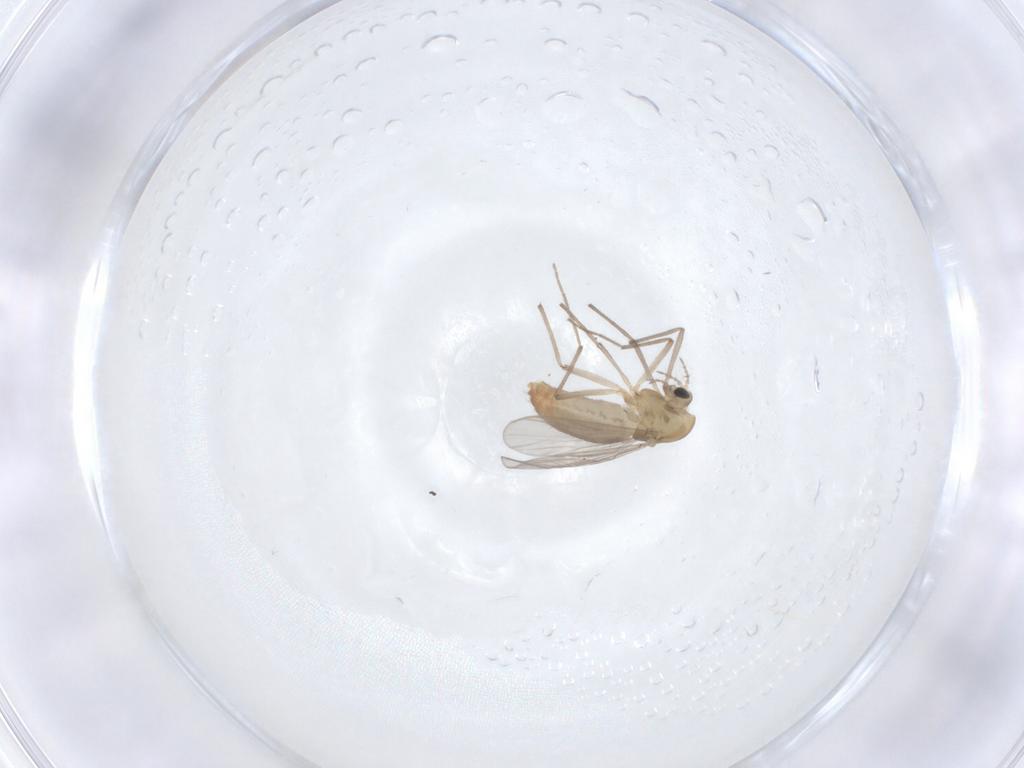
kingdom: Animalia
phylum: Arthropoda
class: Insecta
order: Diptera
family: Chironomidae
